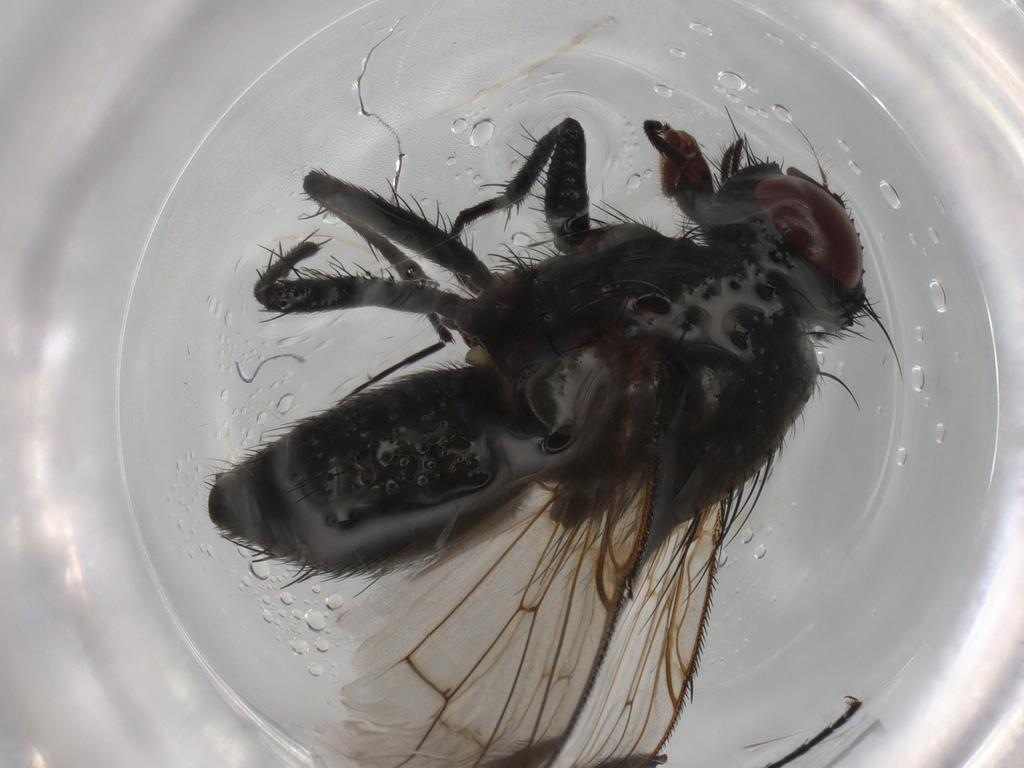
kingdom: Animalia
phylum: Arthropoda
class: Insecta
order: Diptera
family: Muscidae
